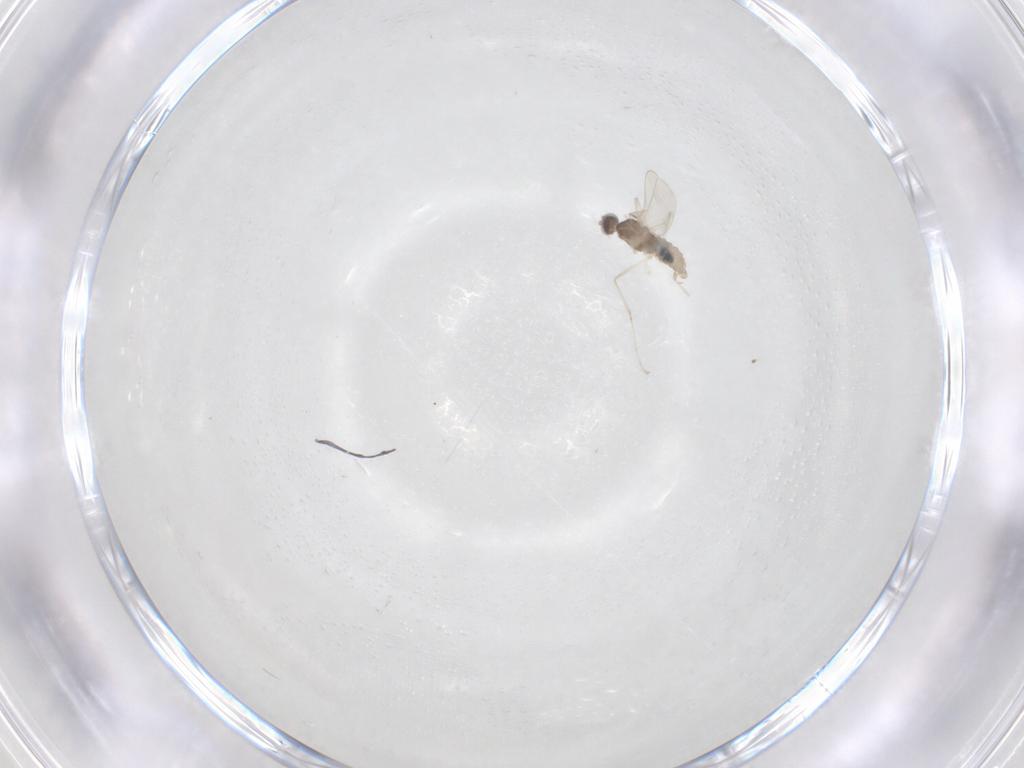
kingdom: Animalia
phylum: Arthropoda
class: Insecta
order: Diptera
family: Cecidomyiidae
